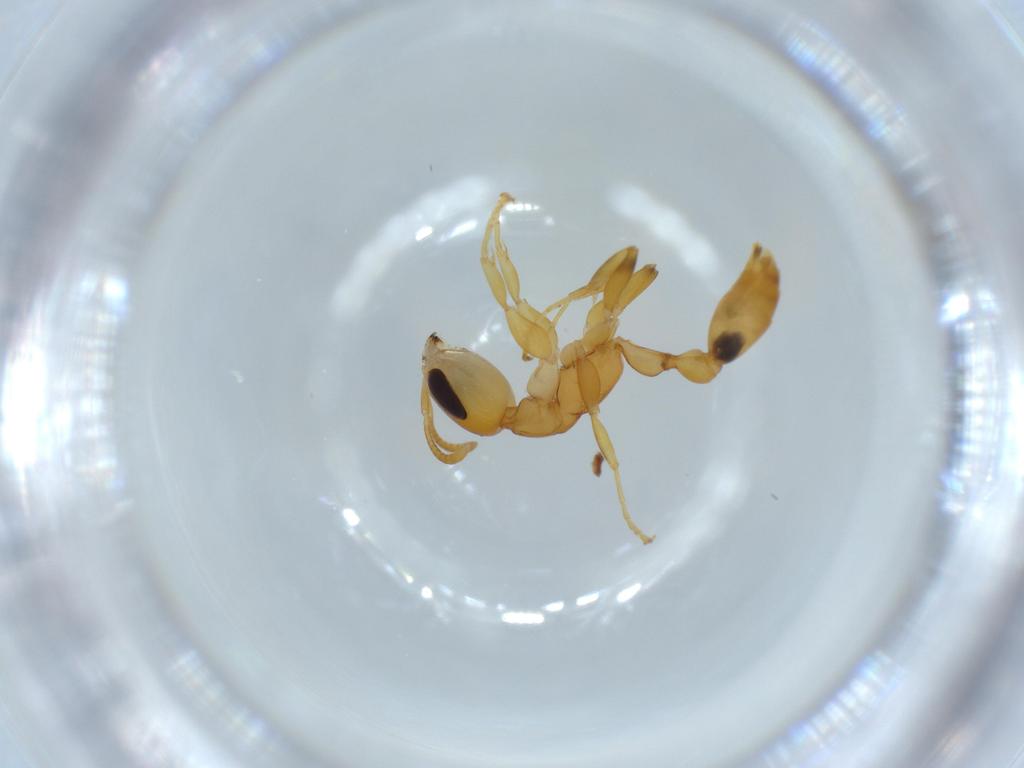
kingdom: Animalia
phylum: Arthropoda
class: Insecta
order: Hymenoptera
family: Formicidae
